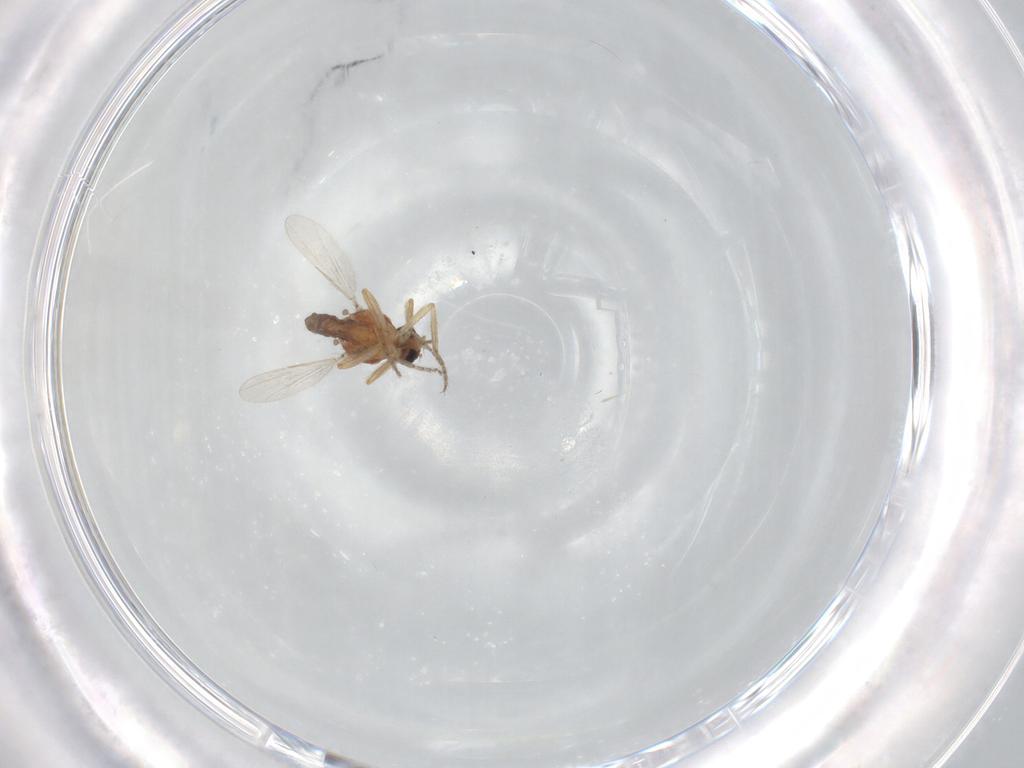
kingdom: Animalia
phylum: Arthropoda
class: Insecta
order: Diptera
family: Ceratopogonidae
